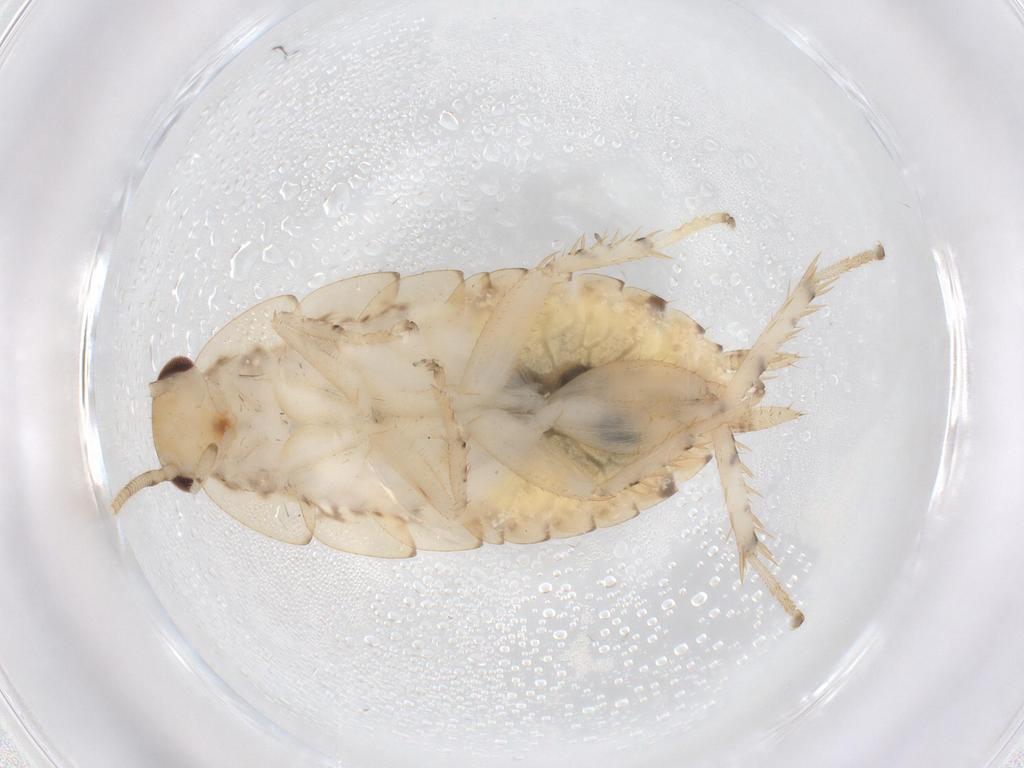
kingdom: Animalia
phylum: Arthropoda
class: Insecta
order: Blattodea
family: Ectobiidae
